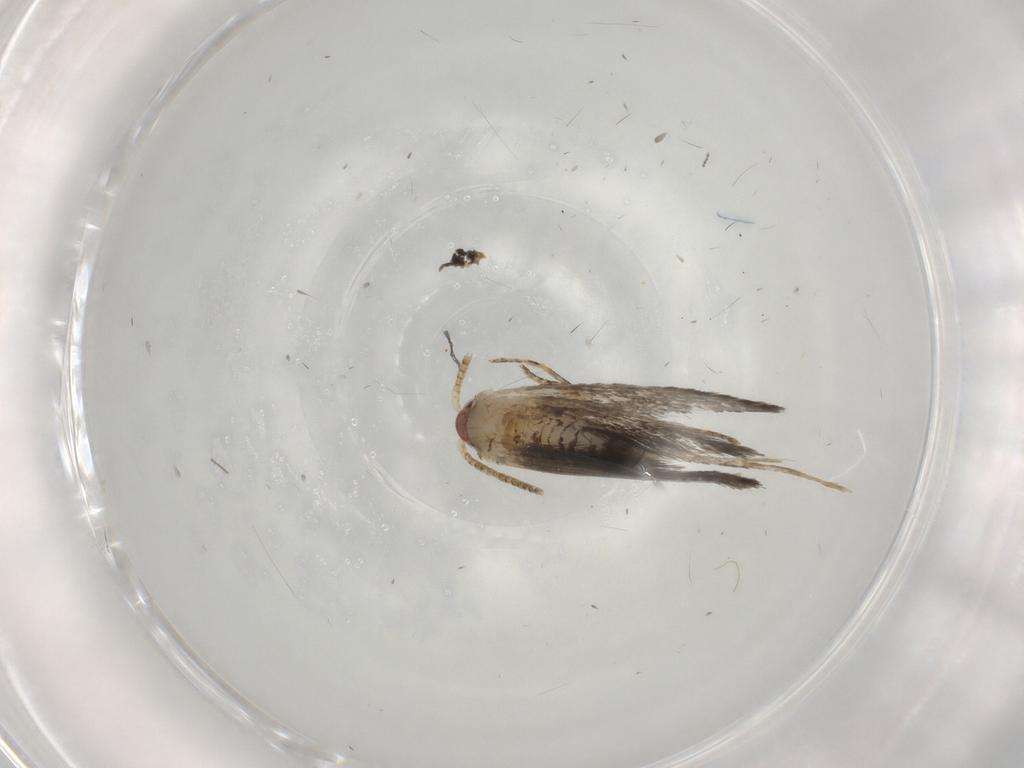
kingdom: Animalia
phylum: Arthropoda
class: Insecta
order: Lepidoptera
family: Tineidae
